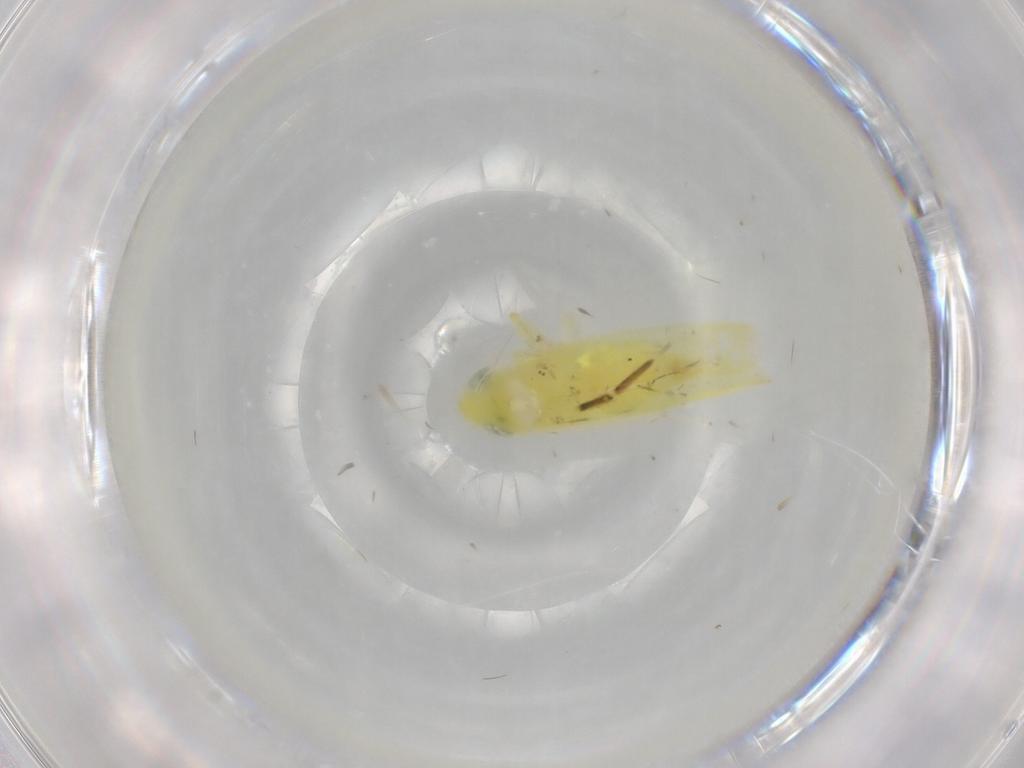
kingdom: Animalia
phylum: Arthropoda
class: Insecta
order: Hemiptera
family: Cicadellidae
